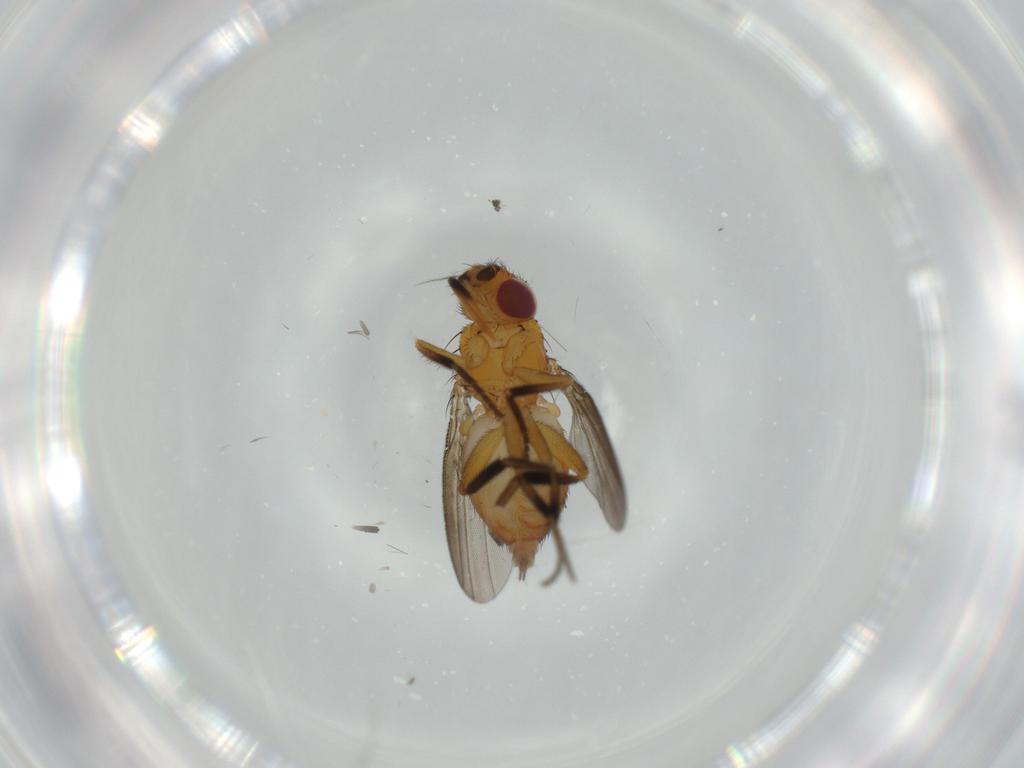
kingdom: Animalia
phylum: Arthropoda
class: Insecta
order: Diptera
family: Milichiidae
